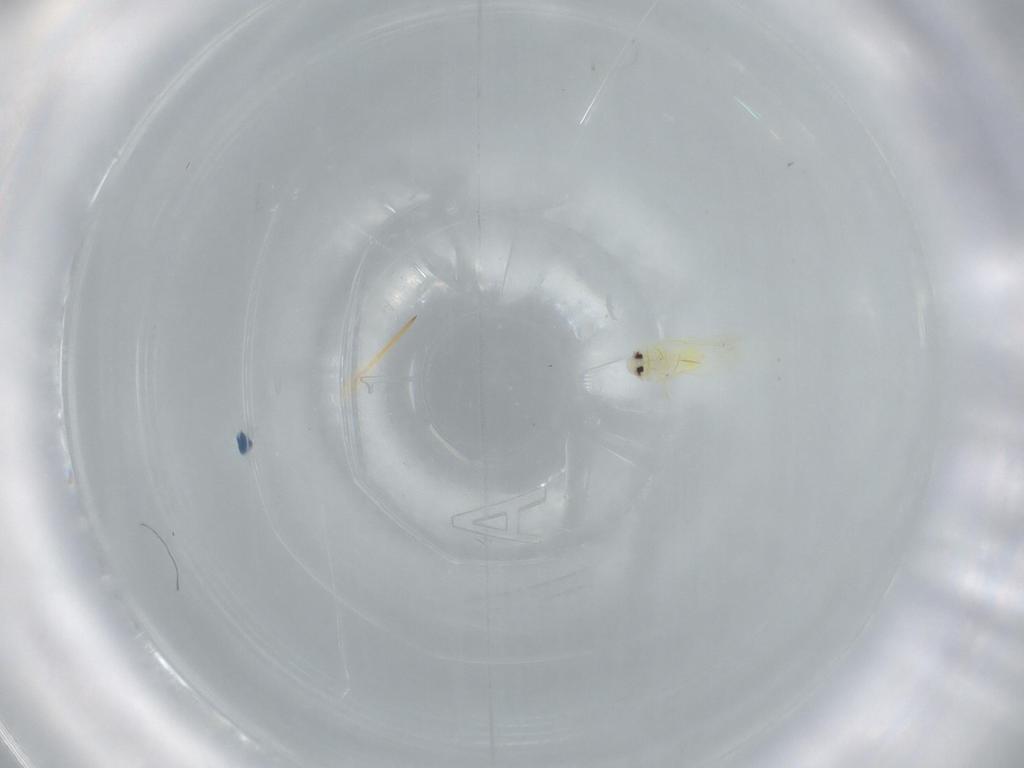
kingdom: Animalia
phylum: Arthropoda
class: Insecta
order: Hemiptera
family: Aleyrodidae
